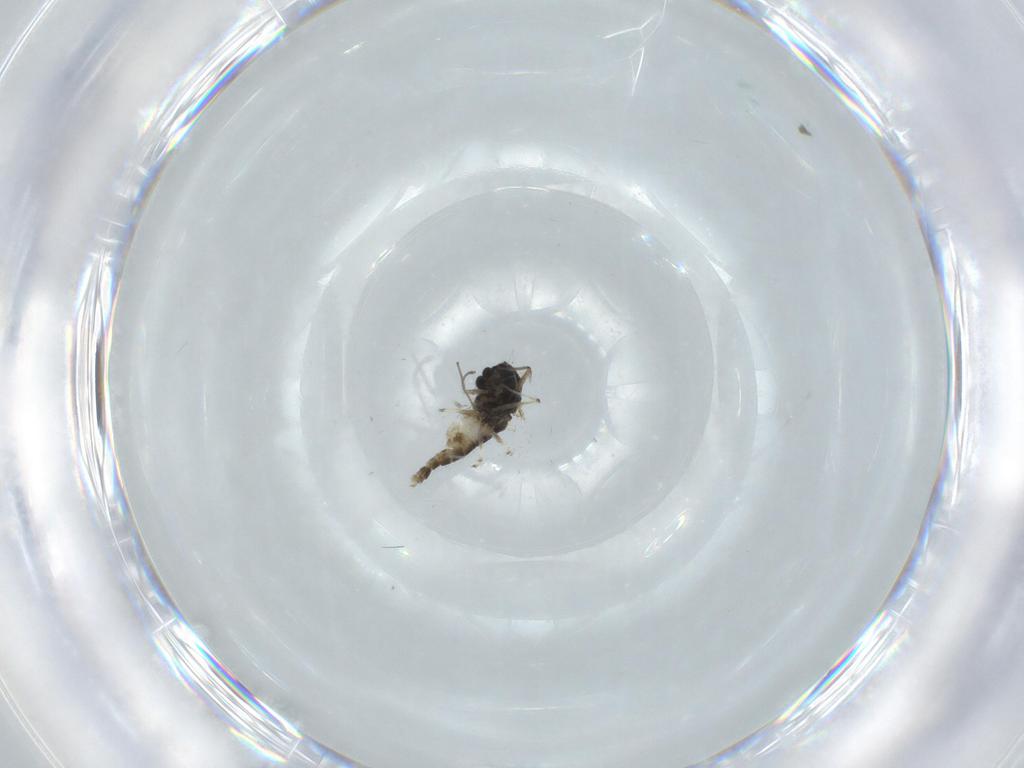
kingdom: Animalia
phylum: Arthropoda
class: Insecta
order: Diptera
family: Chironomidae
